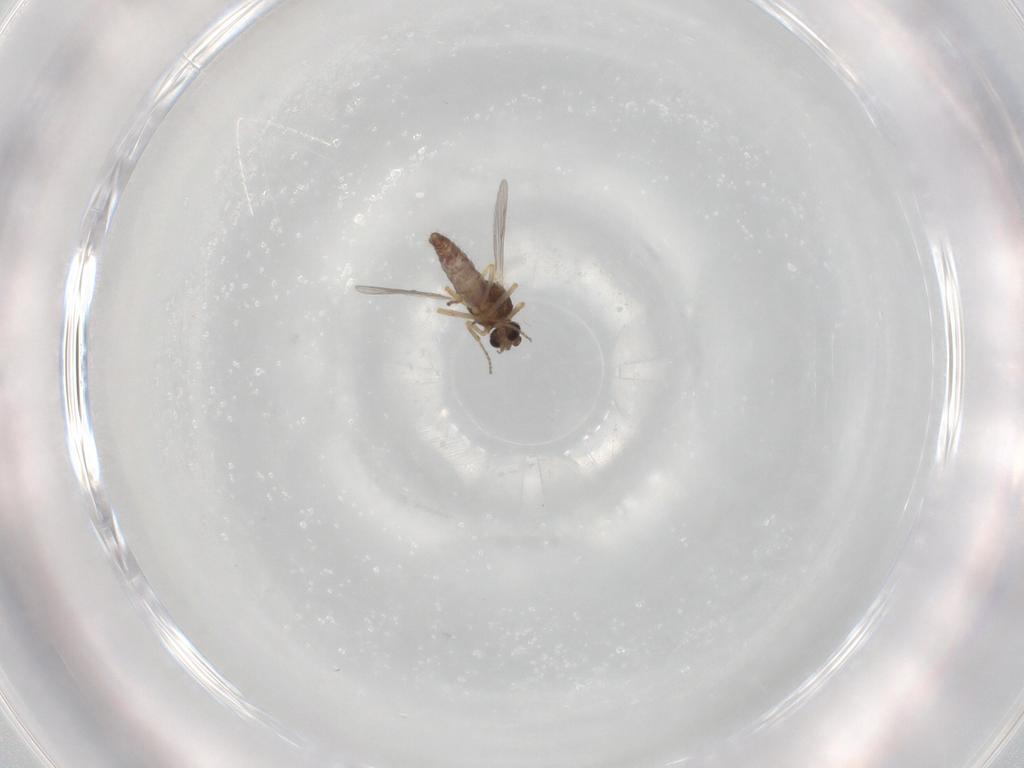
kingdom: Animalia
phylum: Arthropoda
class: Insecta
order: Diptera
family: Ceratopogonidae
